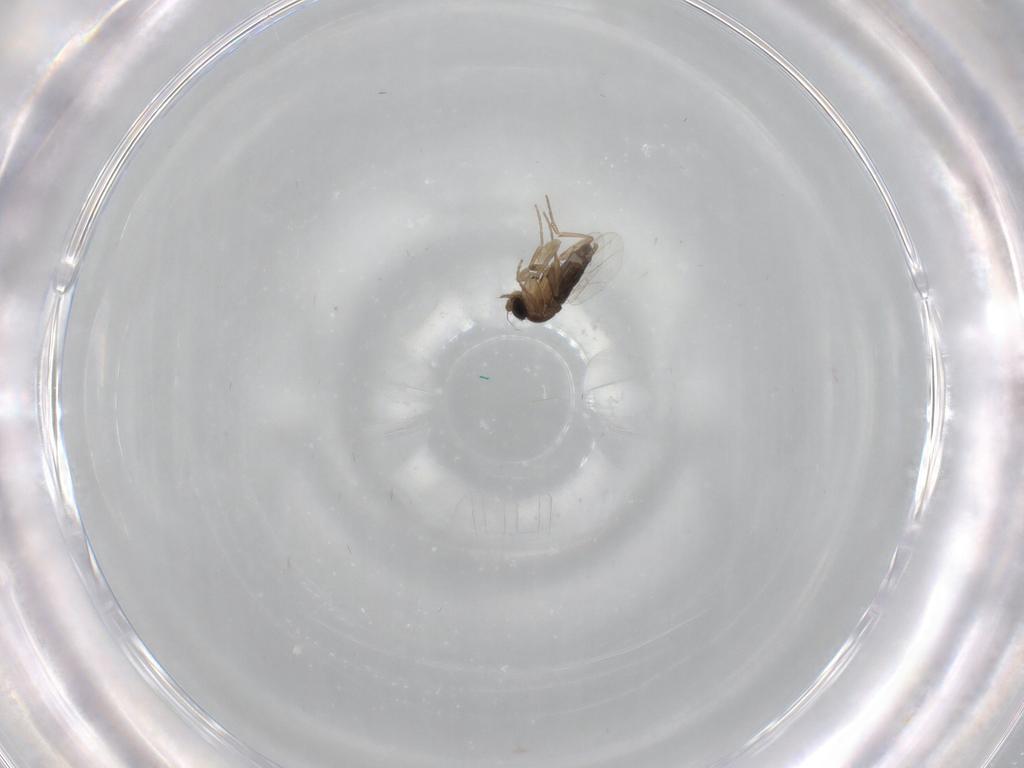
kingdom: Animalia
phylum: Arthropoda
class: Insecta
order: Diptera
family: Phoridae
